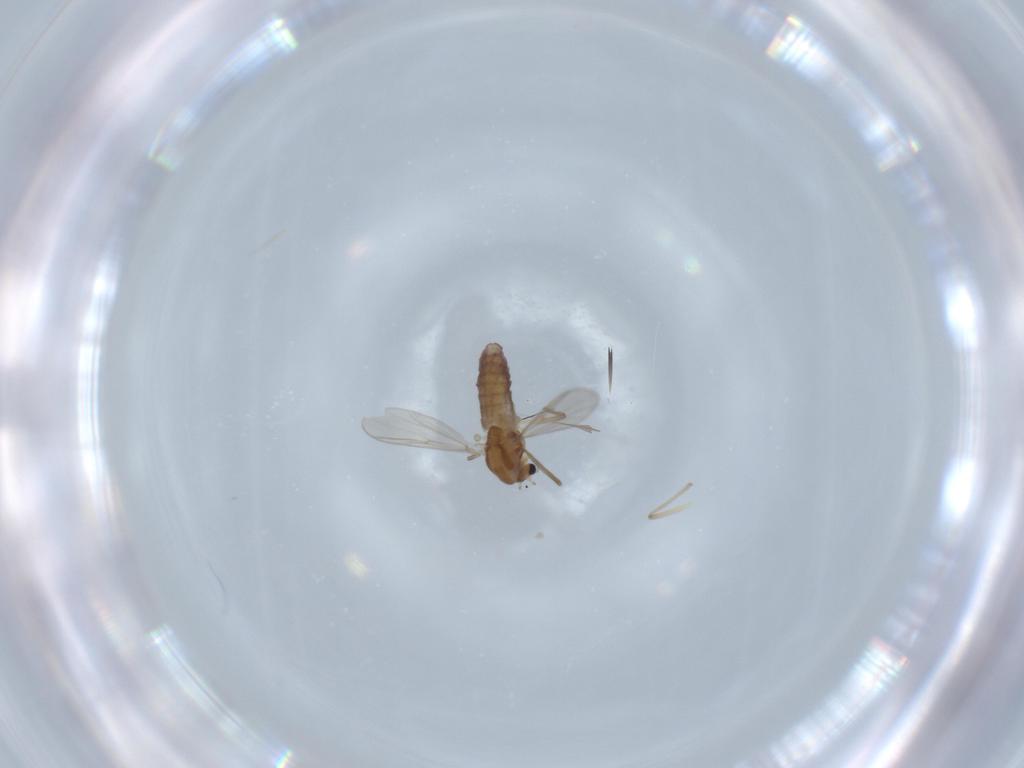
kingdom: Animalia
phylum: Arthropoda
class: Insecta
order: Diptera
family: Chironomidae
